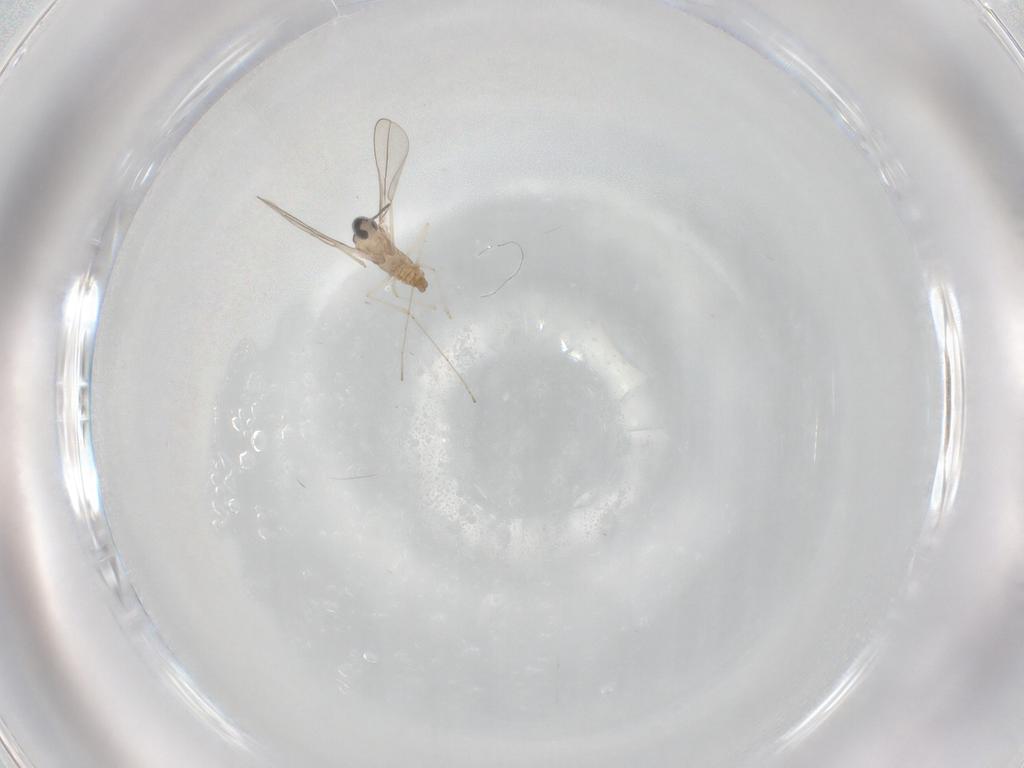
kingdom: Animalia
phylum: Arthropoda
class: Insecta
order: Diptera
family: Cecidomyiidae
